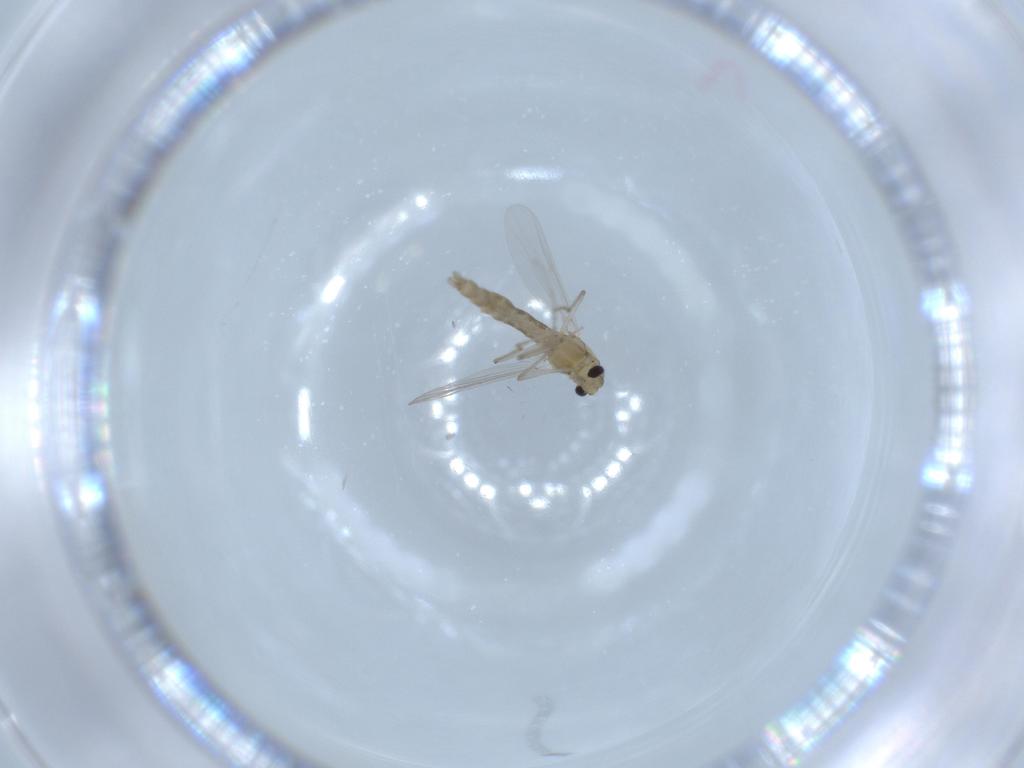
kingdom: Animalia
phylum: Arthropoda
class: Insecta
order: Diptera
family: Chironomidae
